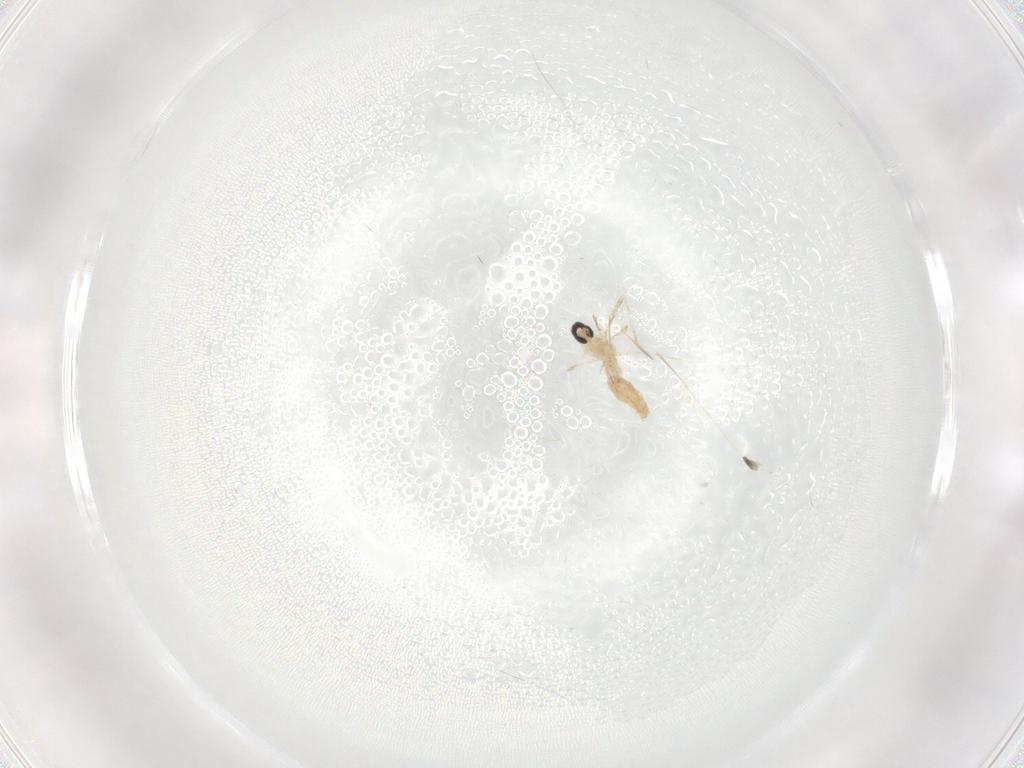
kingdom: Animalia
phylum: Arthropoda
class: Insecta
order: Diptera
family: Cecidomyiidae
